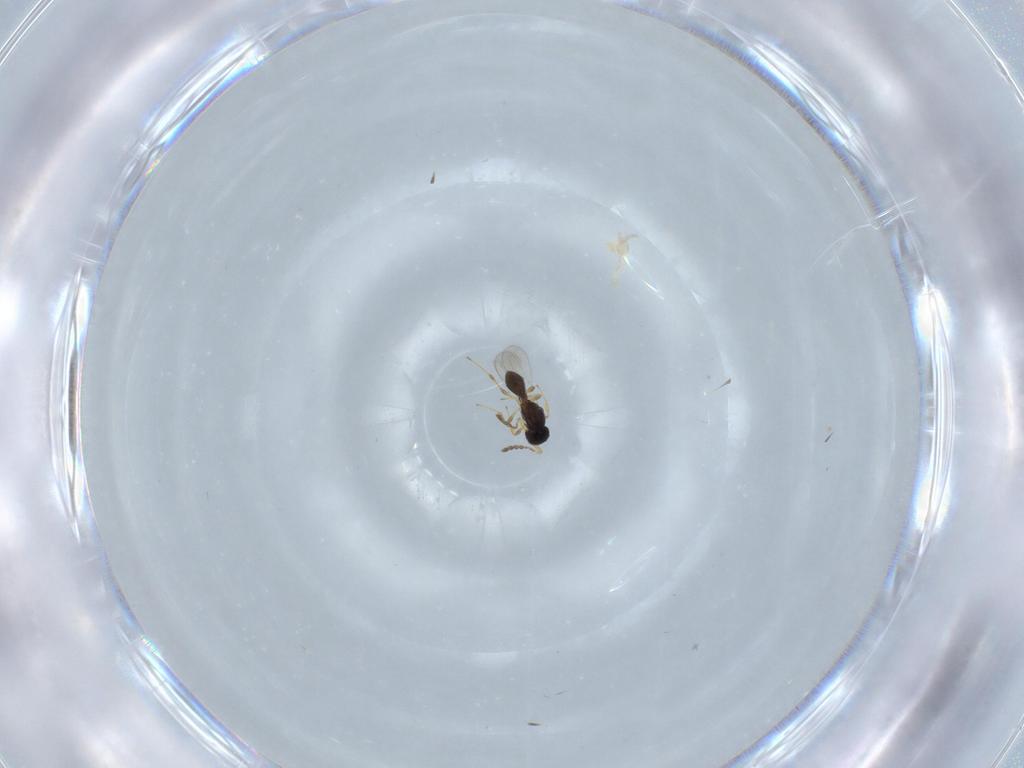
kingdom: Animalia
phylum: Arthropoda
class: Insecta
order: Hymenoptera
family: Platygastridae
